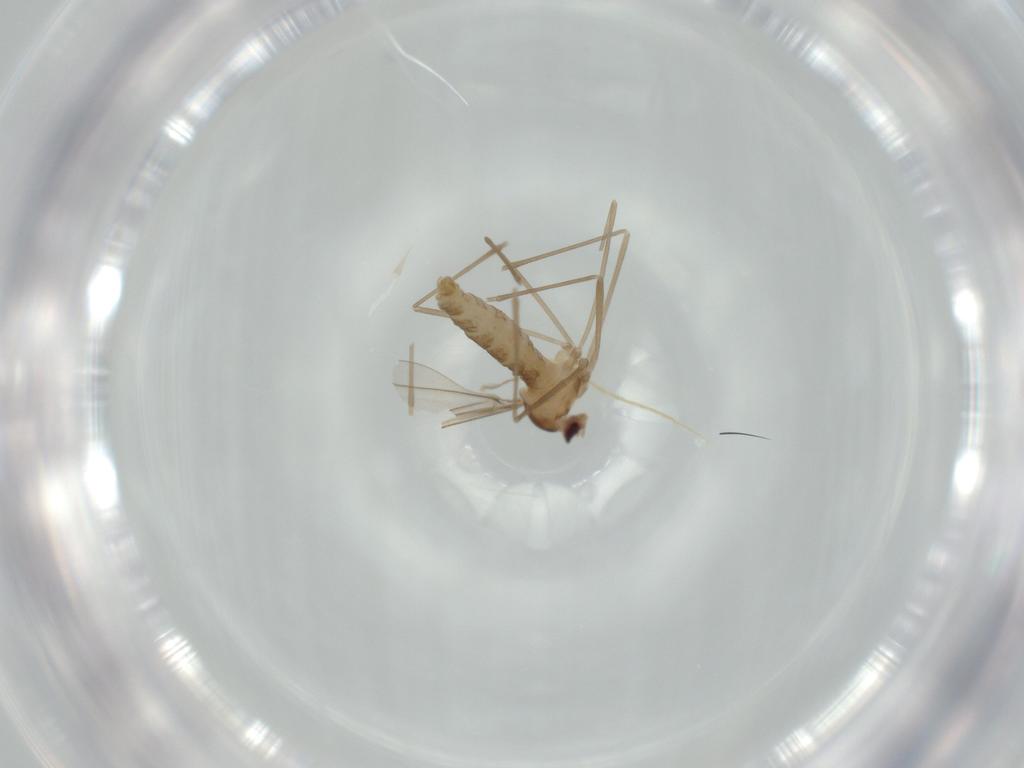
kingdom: Animalia
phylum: Arthropoda
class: Insecta
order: Diptera
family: Cecidomyiidae
